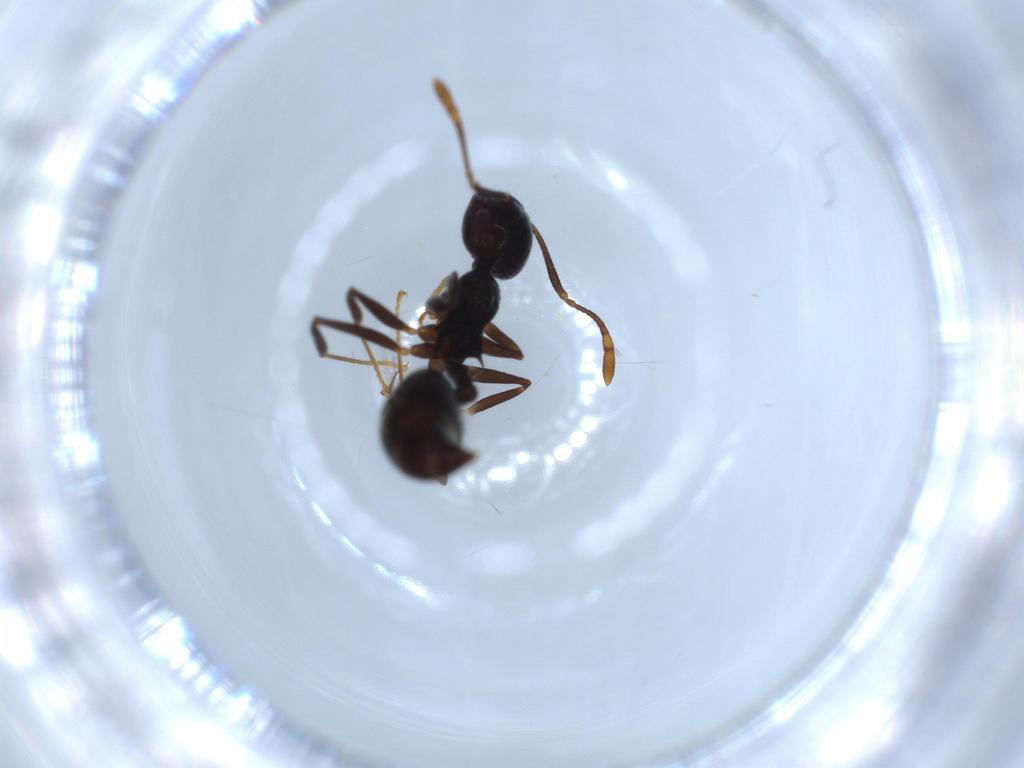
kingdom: Animalia
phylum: Arthropoda
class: Insecta
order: Hymenoptera
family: Formicidae
